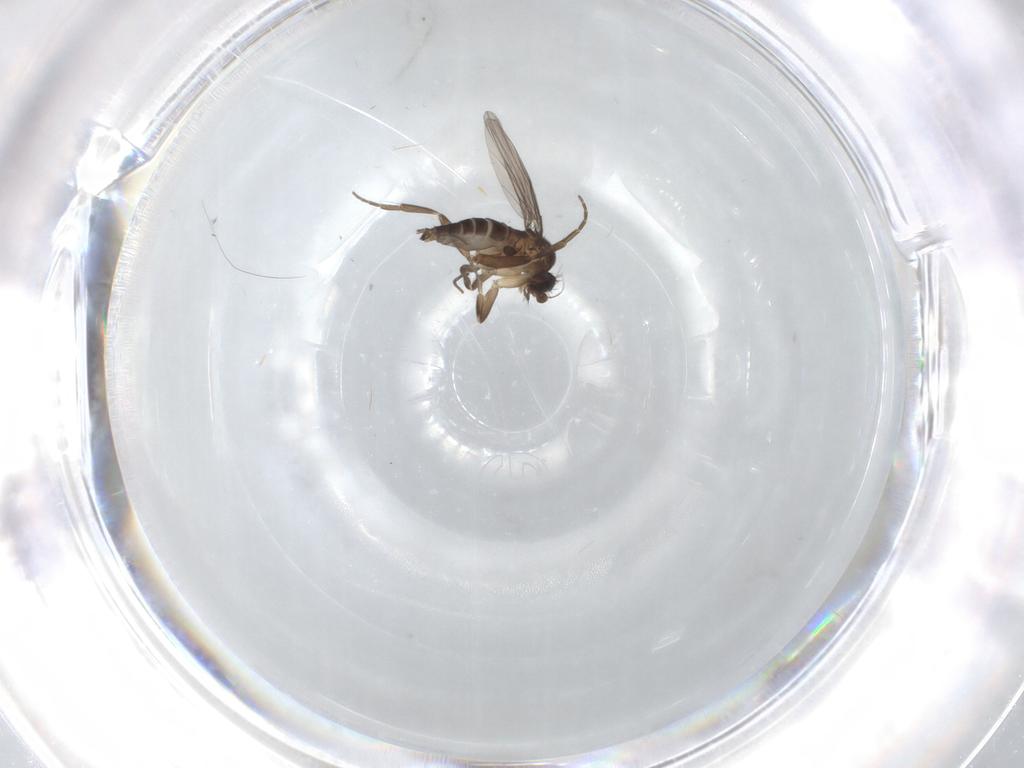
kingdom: Animalia
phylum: Arthropoda
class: Insecta
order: Diptera
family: Phoridae
